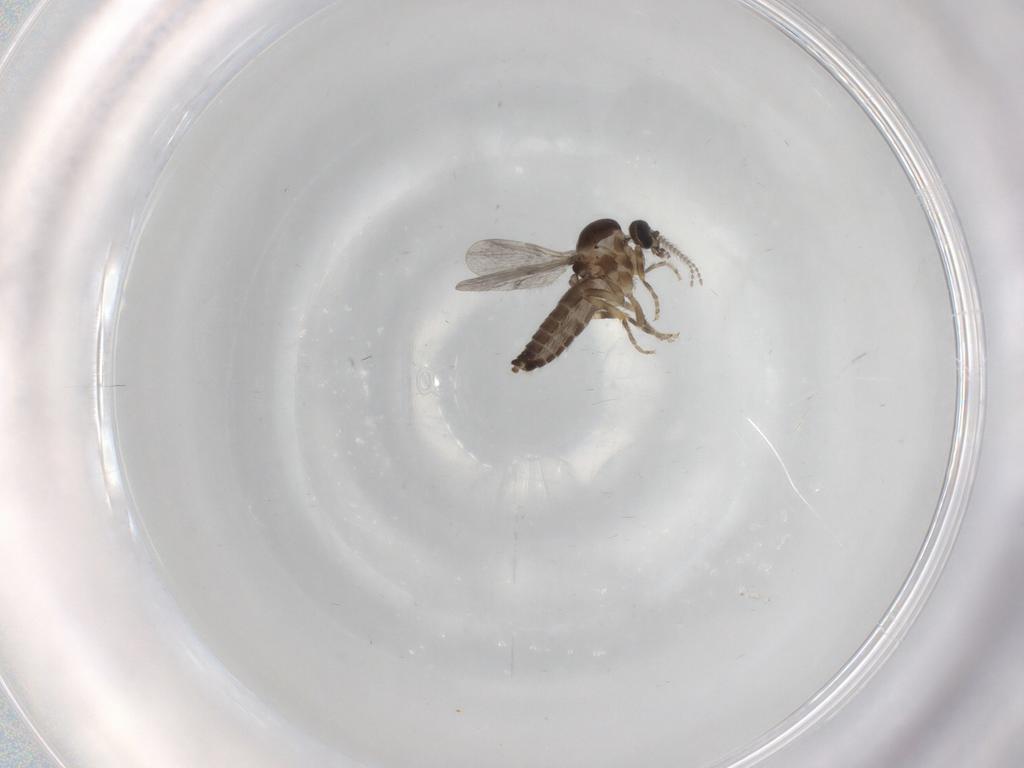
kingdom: Animalia
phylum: Arthropoda
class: Insecta
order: Diptera
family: Ceratopogonidae
